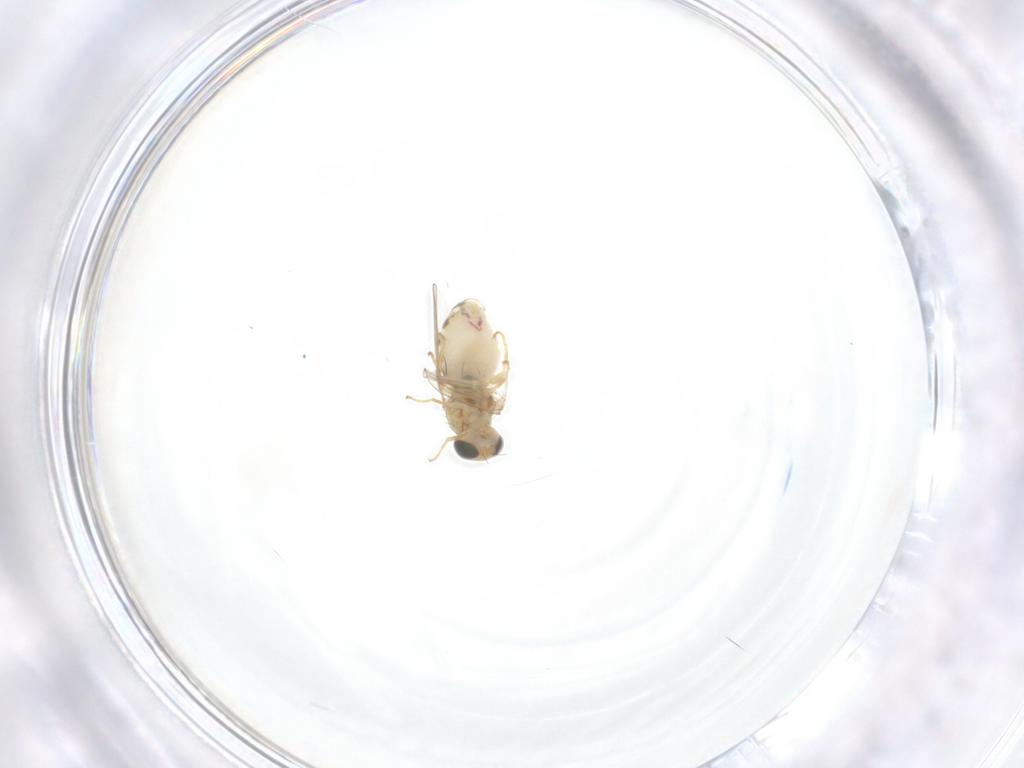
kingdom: Animalia
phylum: Arthropoda
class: Insecta
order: Diptera
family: Chyromyidae
